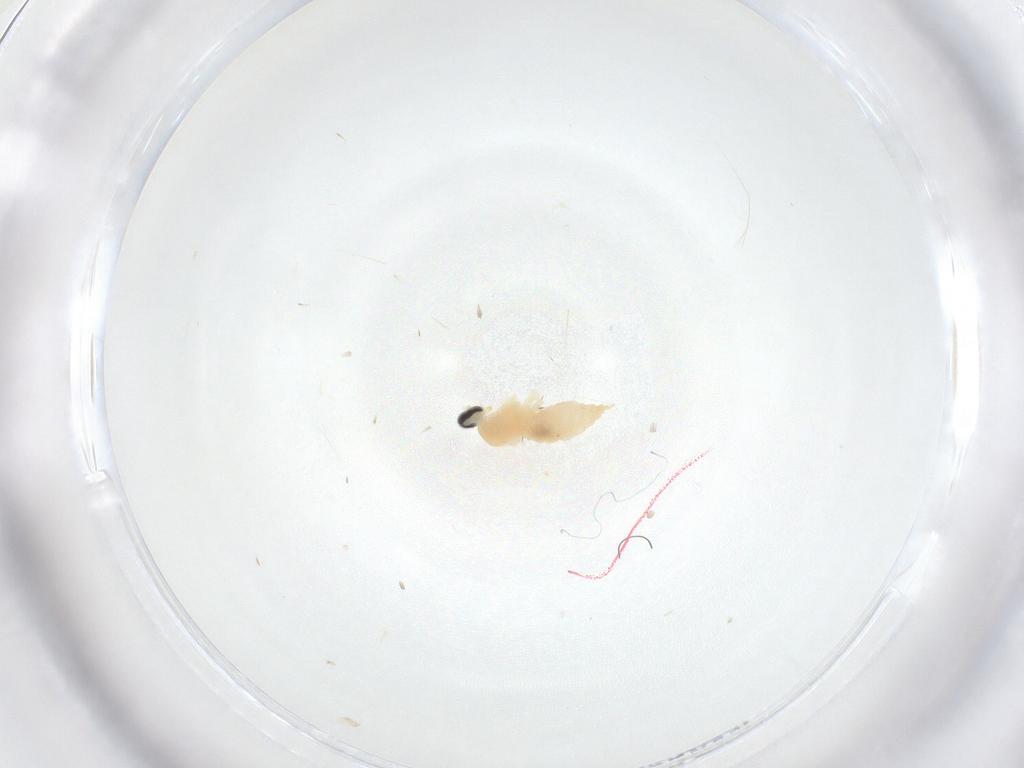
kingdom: Animalia
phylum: Arthropoda
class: Insecta
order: Diptera
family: Cecidomyiidae
